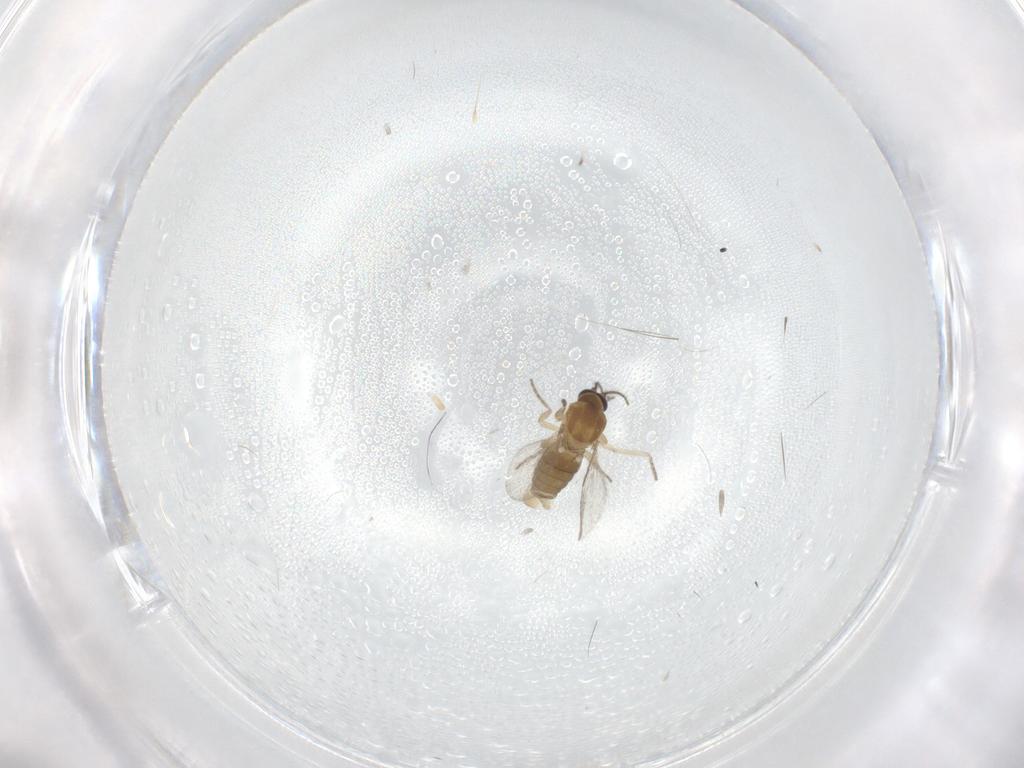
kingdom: Animalia
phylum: Arthropoda
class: Insecta
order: Diptera
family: Ceratopogonidae
